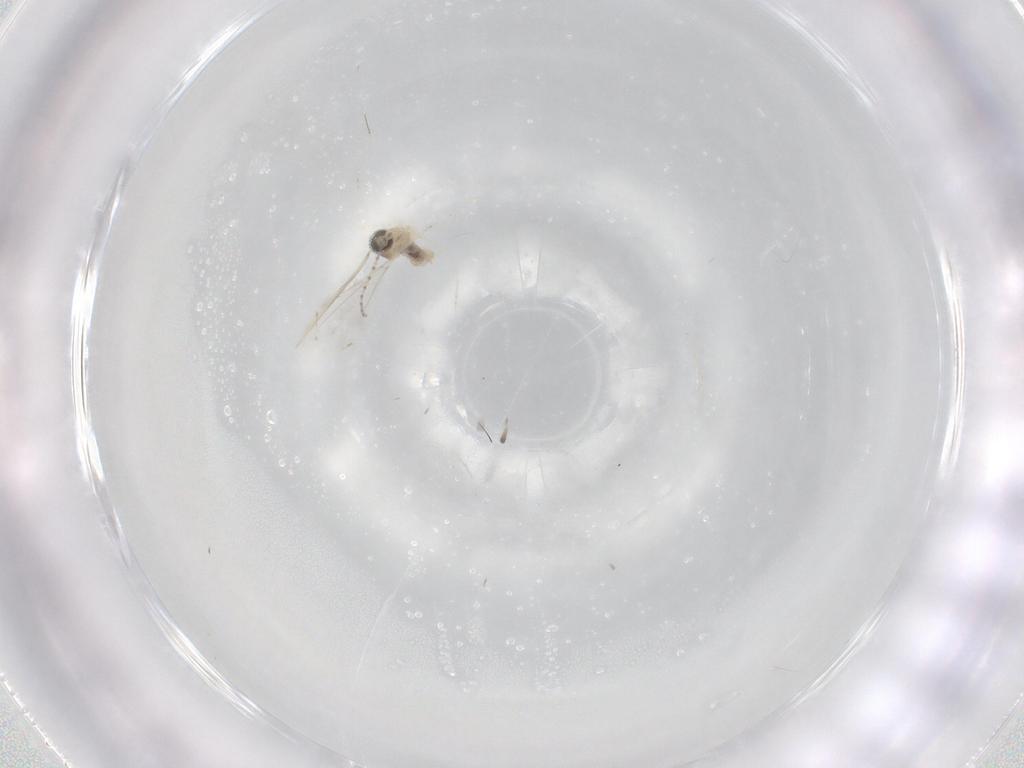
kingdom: Animalia
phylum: Arthropoda
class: Insecta
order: Diptera
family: Cecidomyiidae
